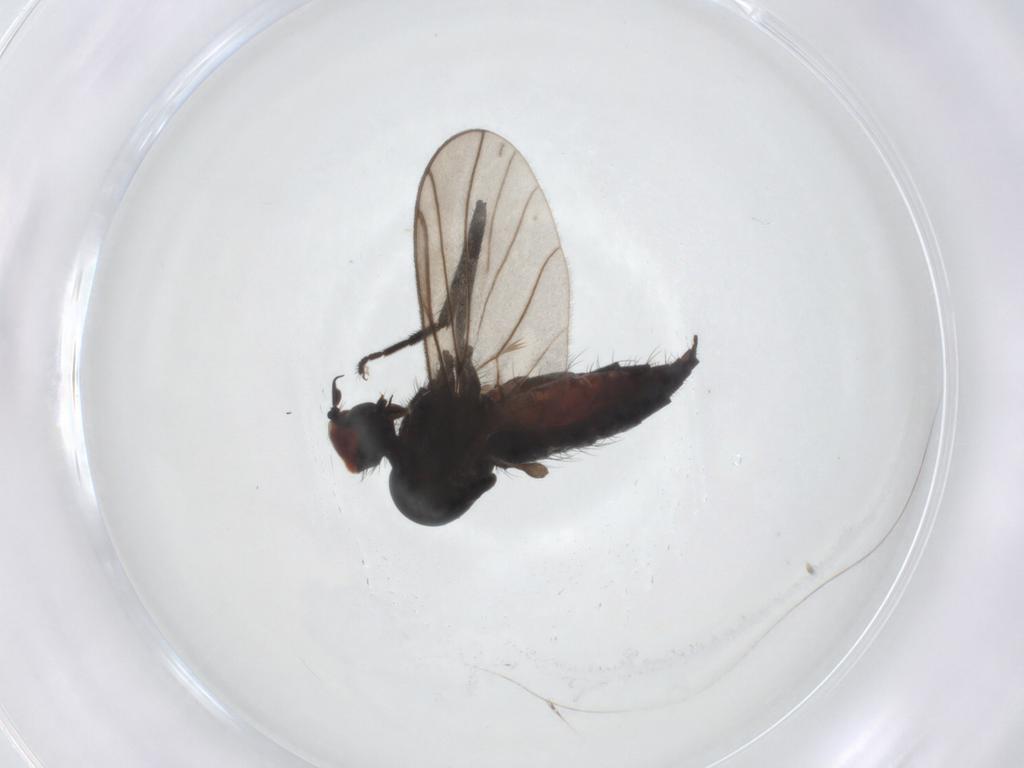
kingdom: Animalia
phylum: Arthropoda
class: Insecta
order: Diptera
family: Hybotidae
